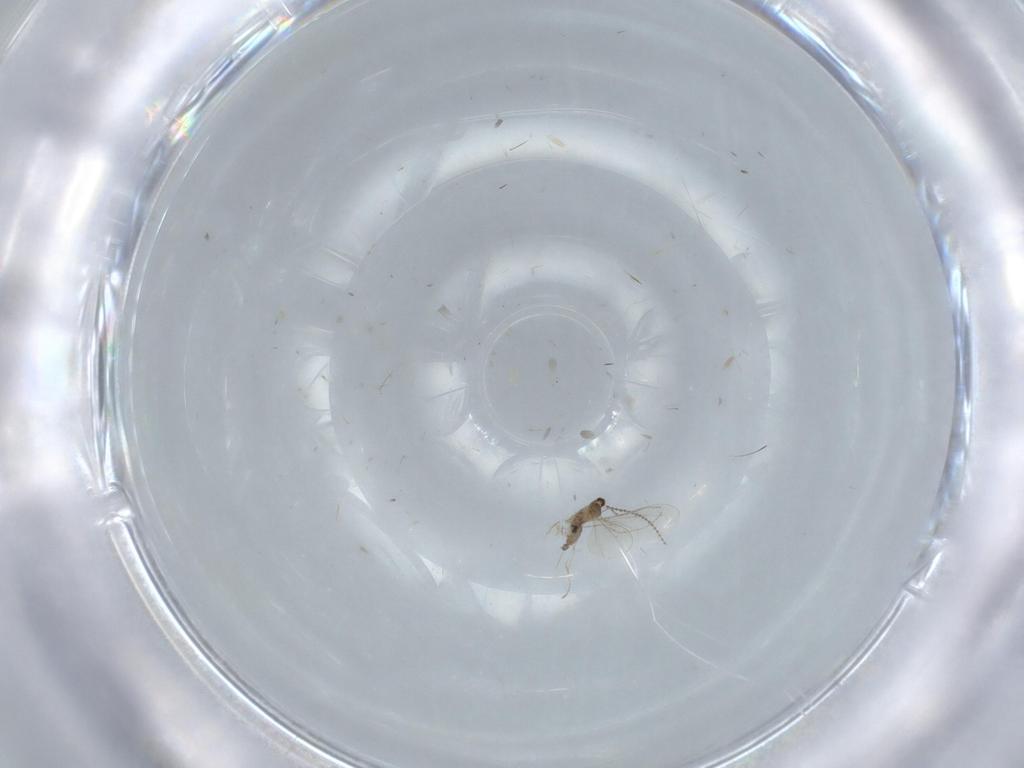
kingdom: Animalia
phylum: Arthropoda
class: Insecta
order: Diptera
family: Cecidomyiidae
